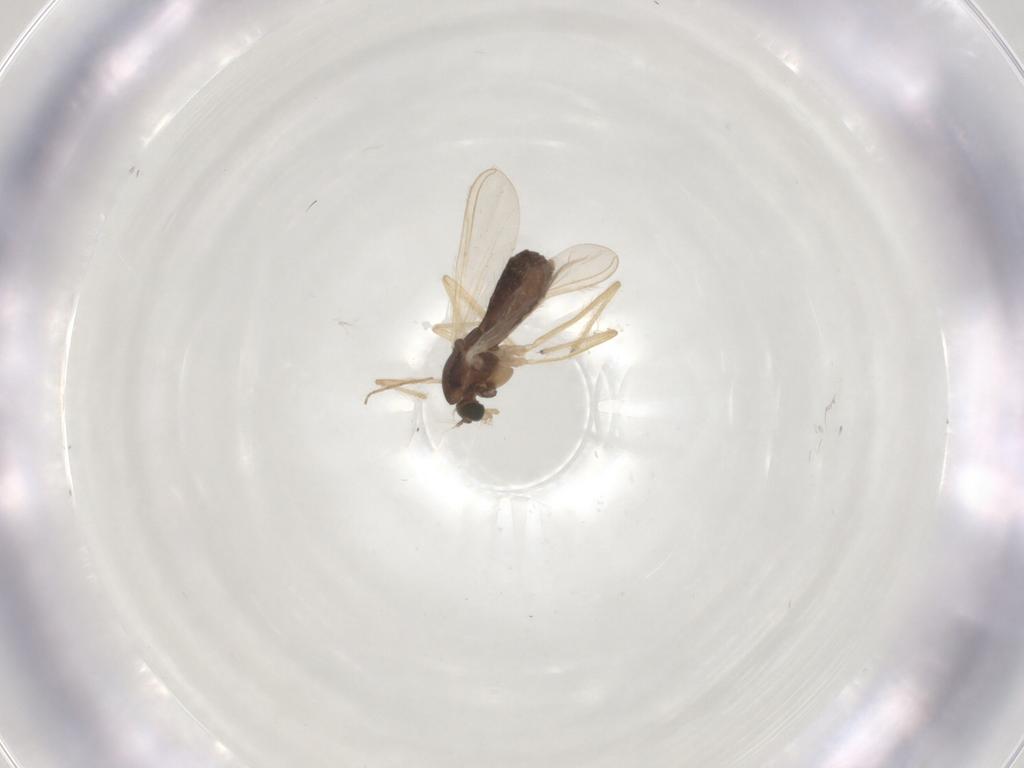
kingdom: Animalia
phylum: Arthropoda
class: Insecta
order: Diptera
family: Chironomidae
